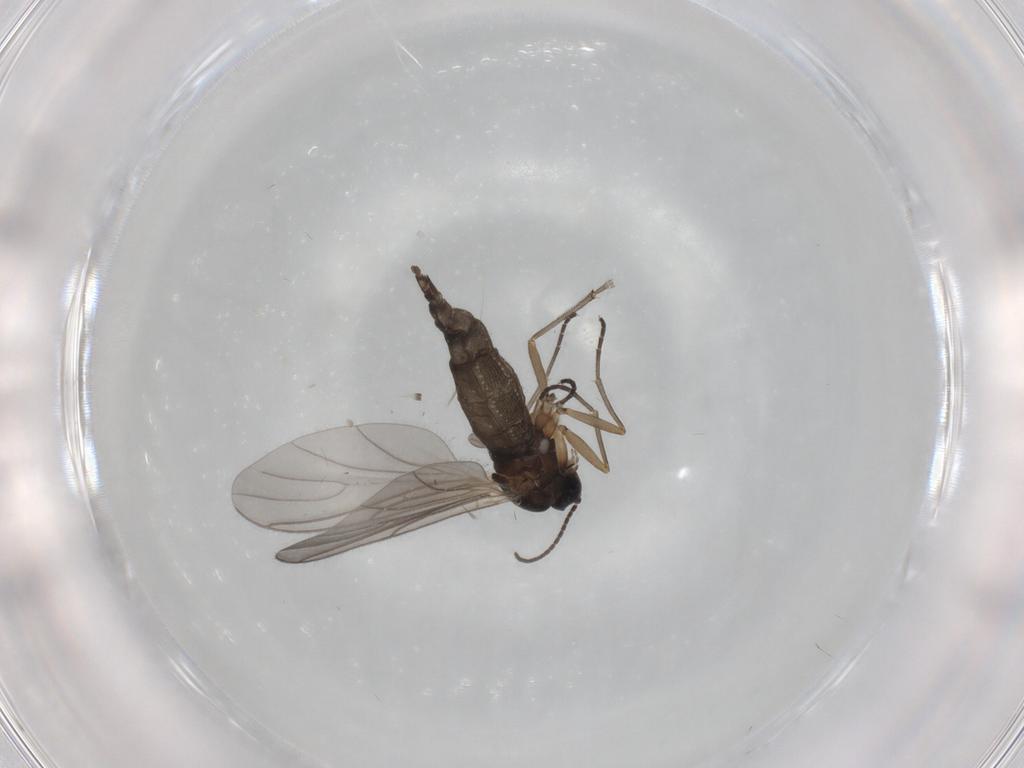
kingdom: Animalia
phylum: Arthropoda
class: Insecta
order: Diptera
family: Sciaridae
